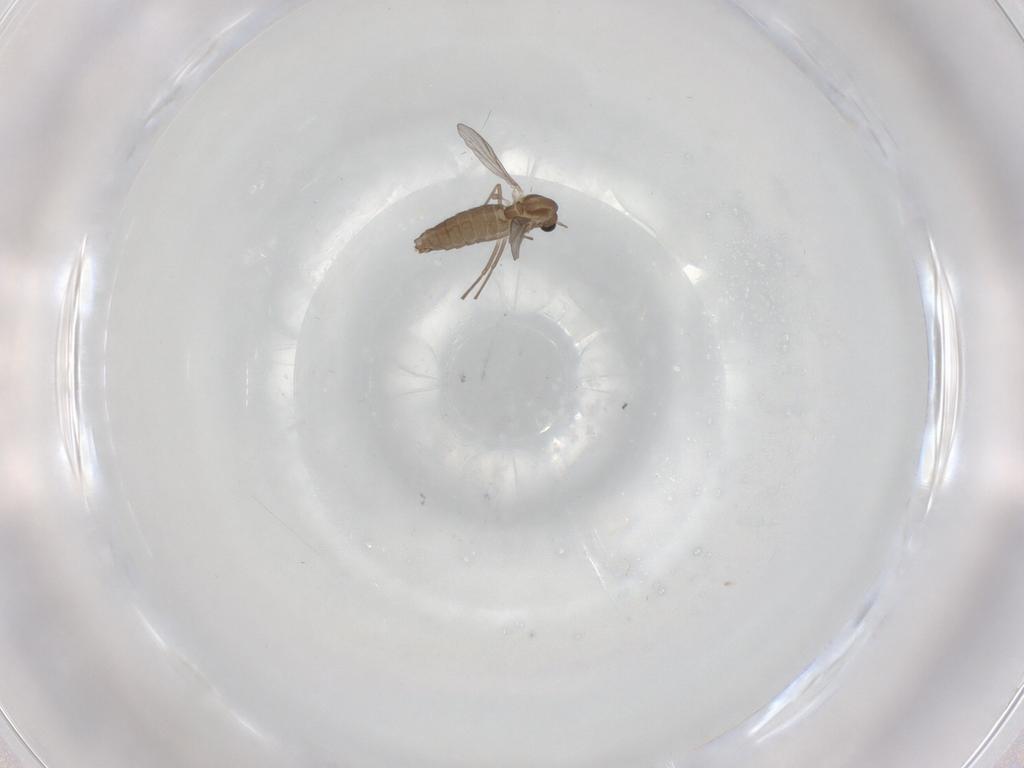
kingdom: Animalia
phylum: Arthropoda
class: Insecta
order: Diptera
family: Chironomidae
